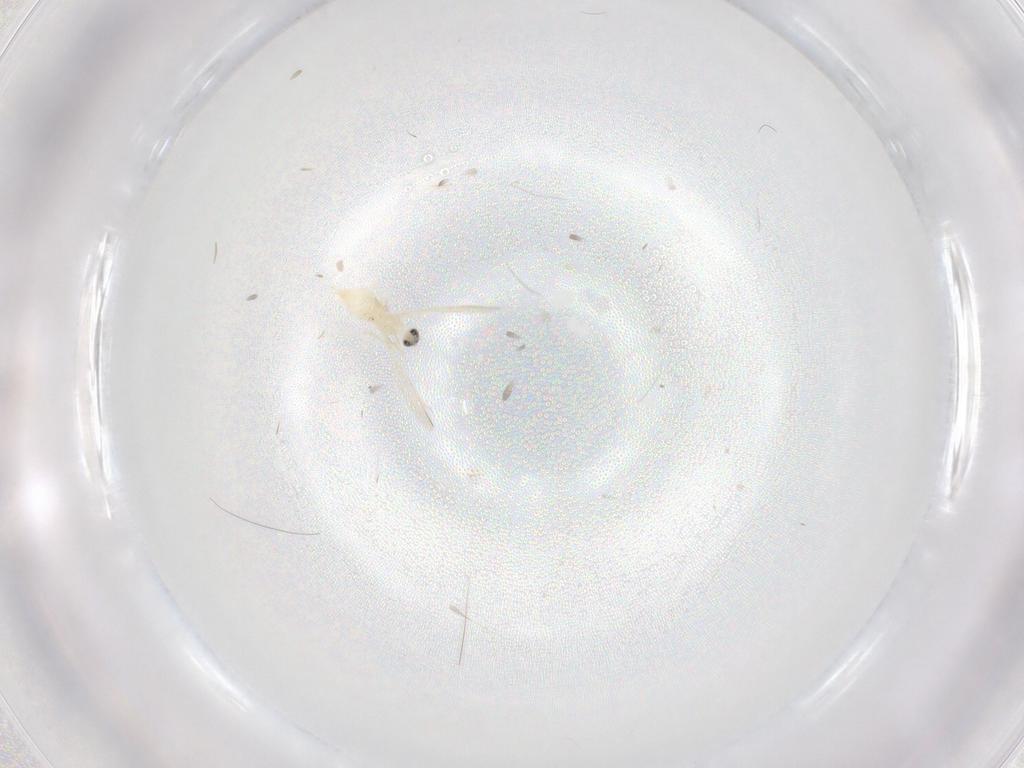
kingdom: Animalia
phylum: Arthropoda
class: Insecta
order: Diptera
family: Cecidomyiidae
